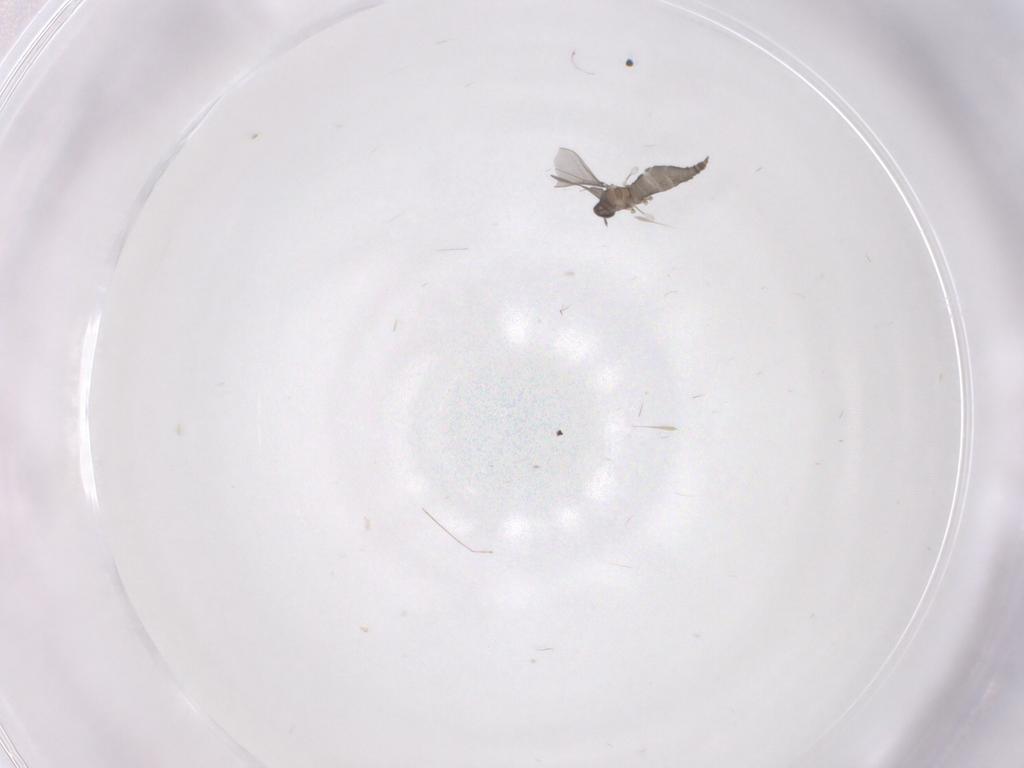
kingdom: Animalia
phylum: Arthropoda
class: Insecta
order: Diptera
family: Cecidomyiidae
